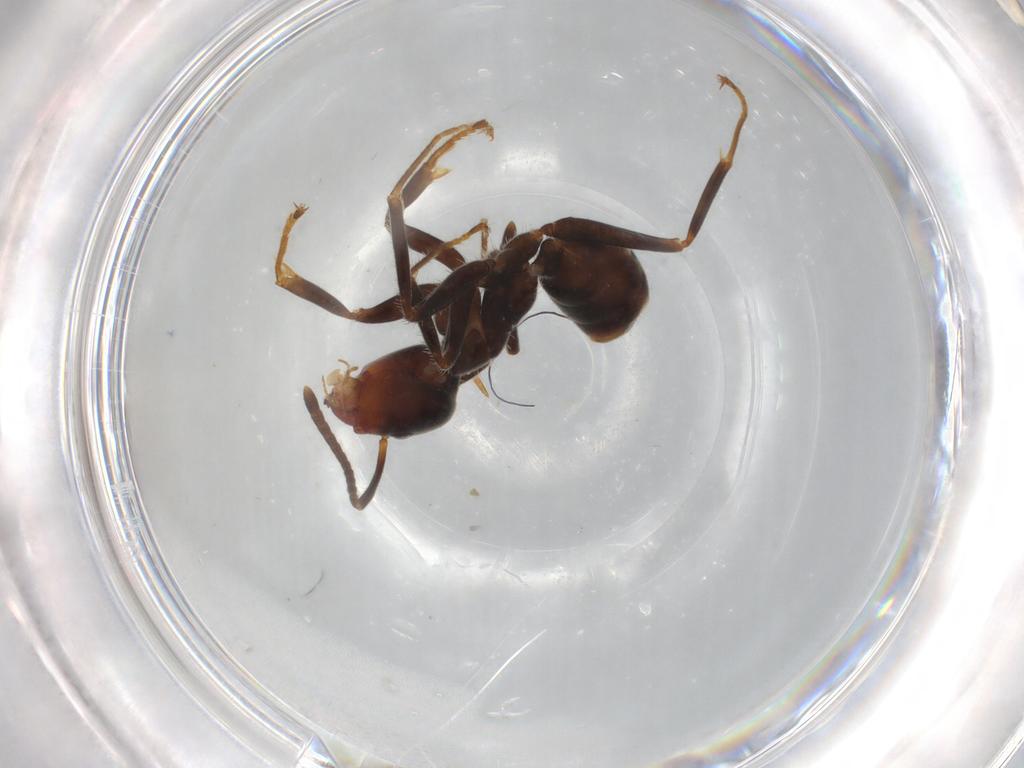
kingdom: Animalia
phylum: Arthropoda
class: Insecta
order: Hymenoptera
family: Formicidae
